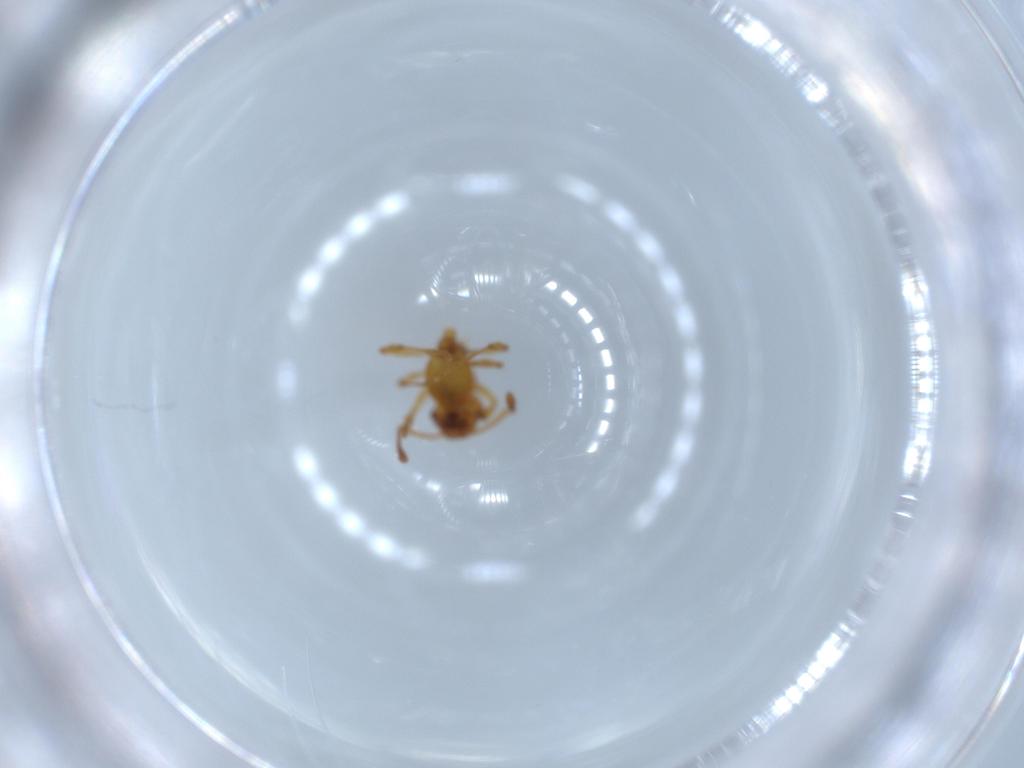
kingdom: Animalia
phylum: Arthropoda
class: Insecta
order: Hymenoptera
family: Formicidae
